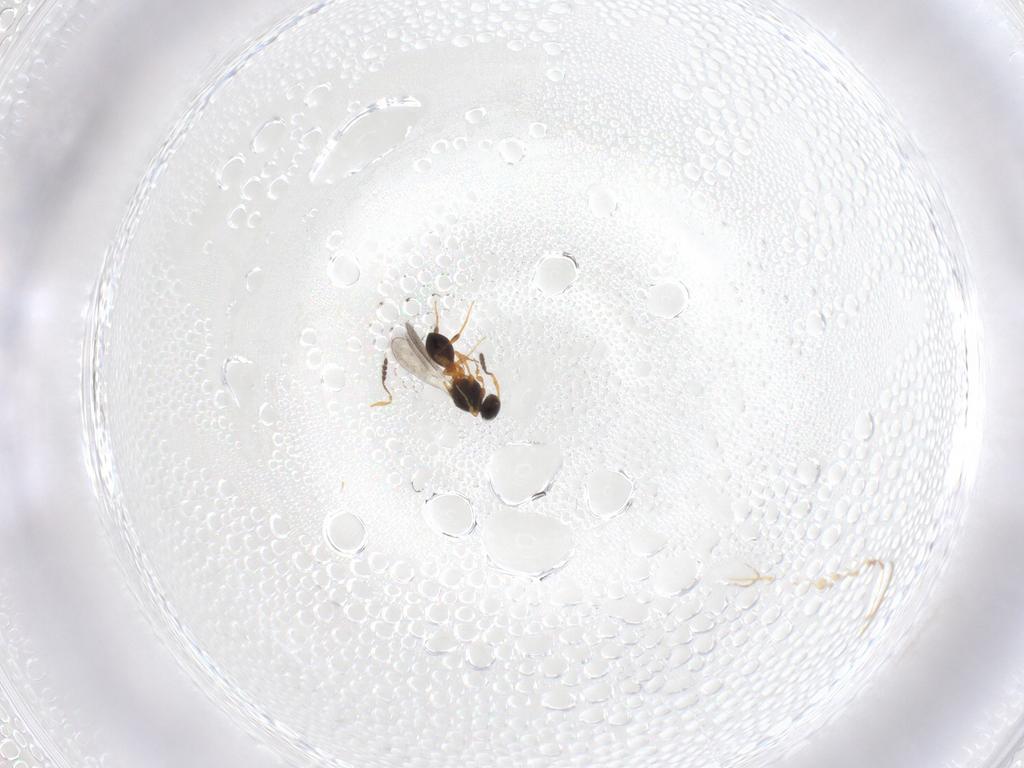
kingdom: Animalia
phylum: Arthropoda
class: Insecta
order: Hymenoptera
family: Platygastridae
